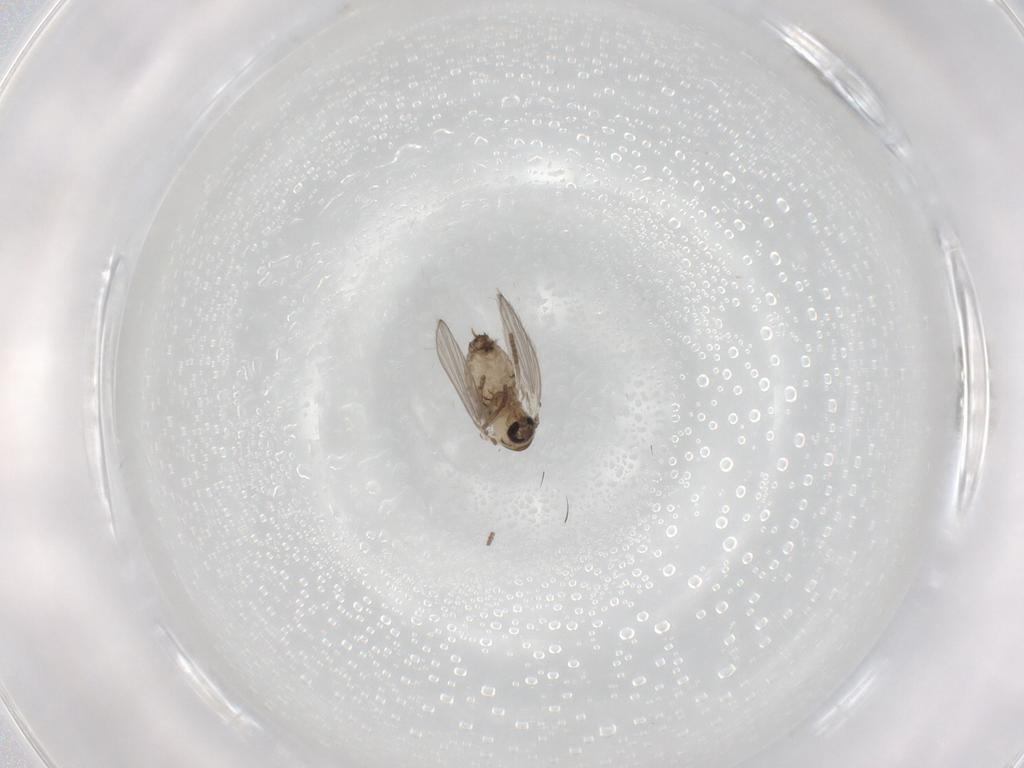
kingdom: Animalia
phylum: Arthropoda
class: Insecta
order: Diptera
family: Psychodidae
